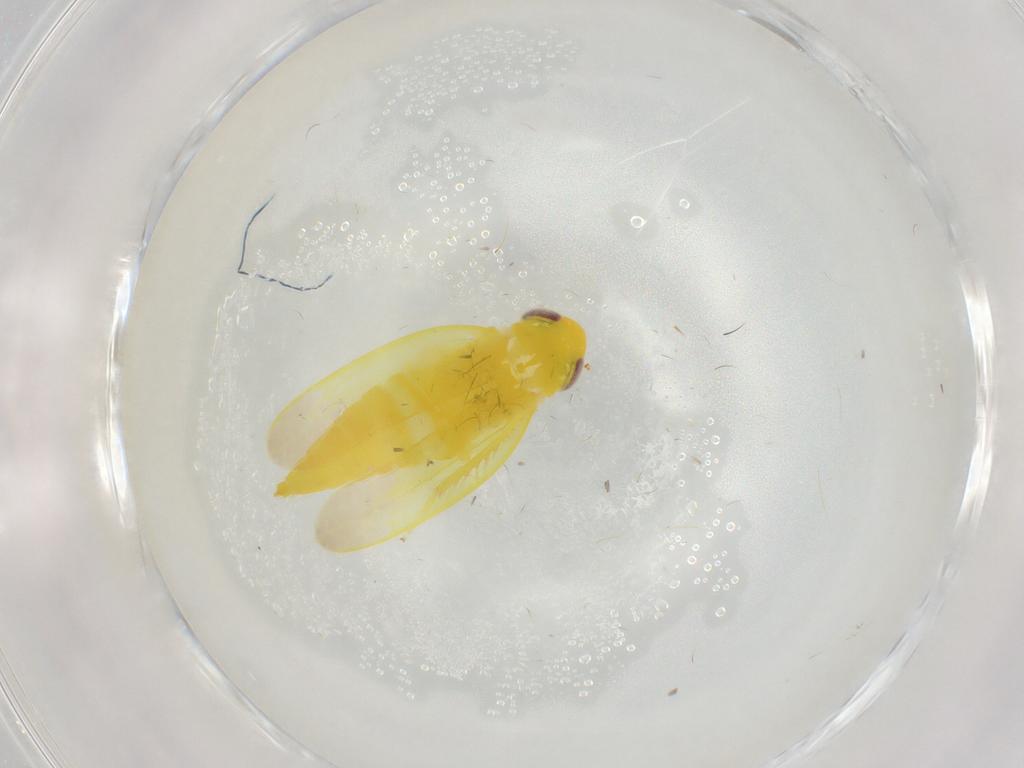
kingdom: Animalia
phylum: Arthropoda
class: Insecta
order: Hemiptera
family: Cicadellidae
